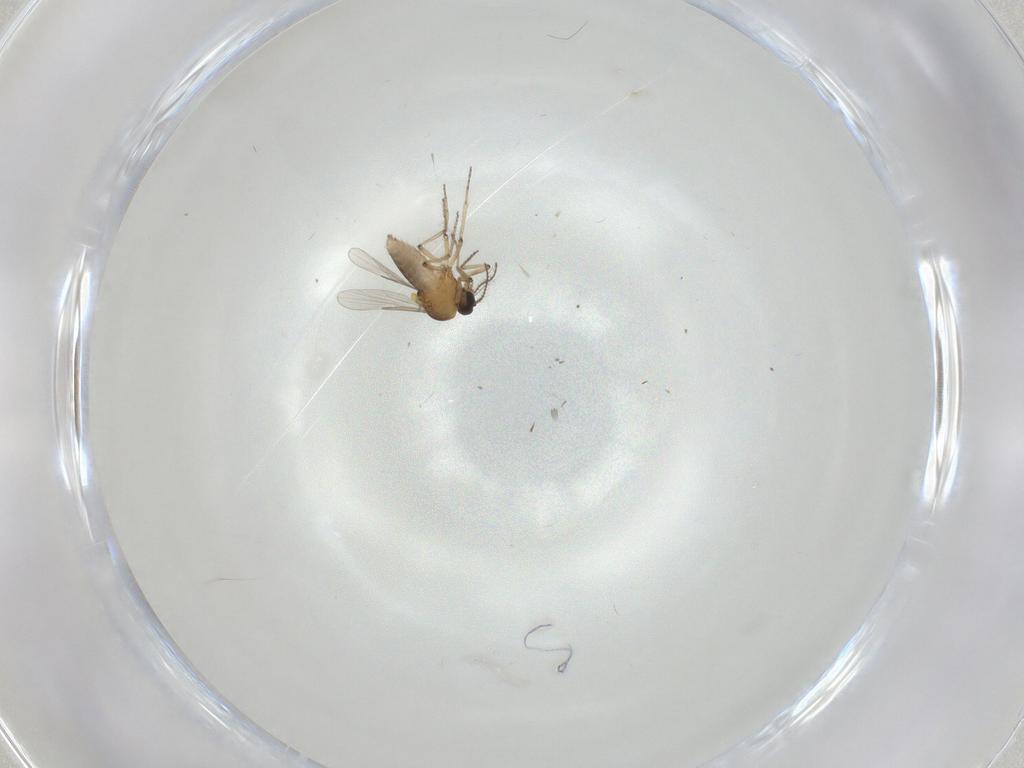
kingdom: Animalia
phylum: Arthropoda
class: Insecta
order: Diptera
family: Ceratopogonidae
